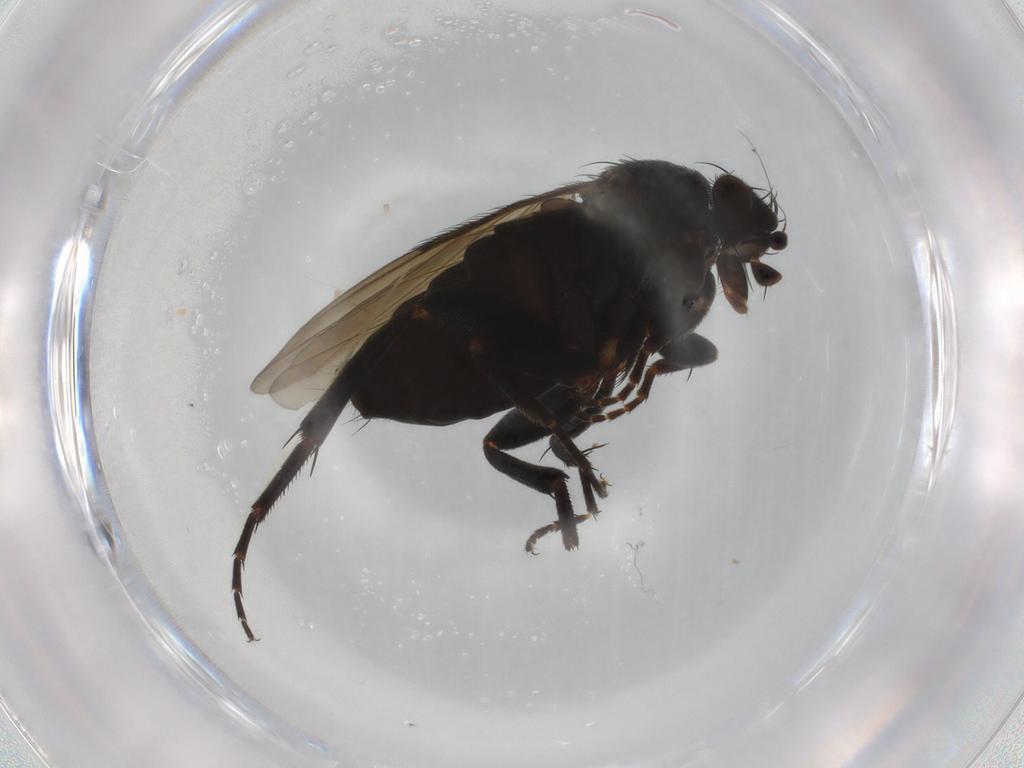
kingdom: Animalia
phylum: Arthropoda
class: Insecta
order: Diptera
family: Phoridae
